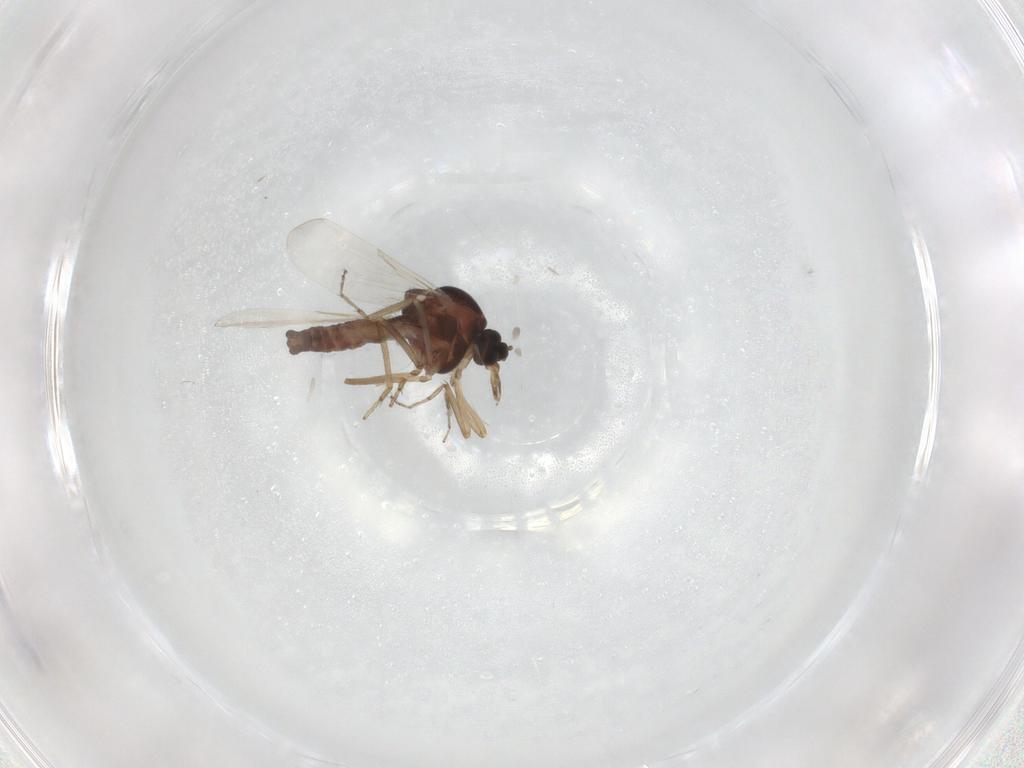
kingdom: Animalia
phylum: Arthropoda
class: Insecta
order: Diptera
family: Ceratopogonidae
